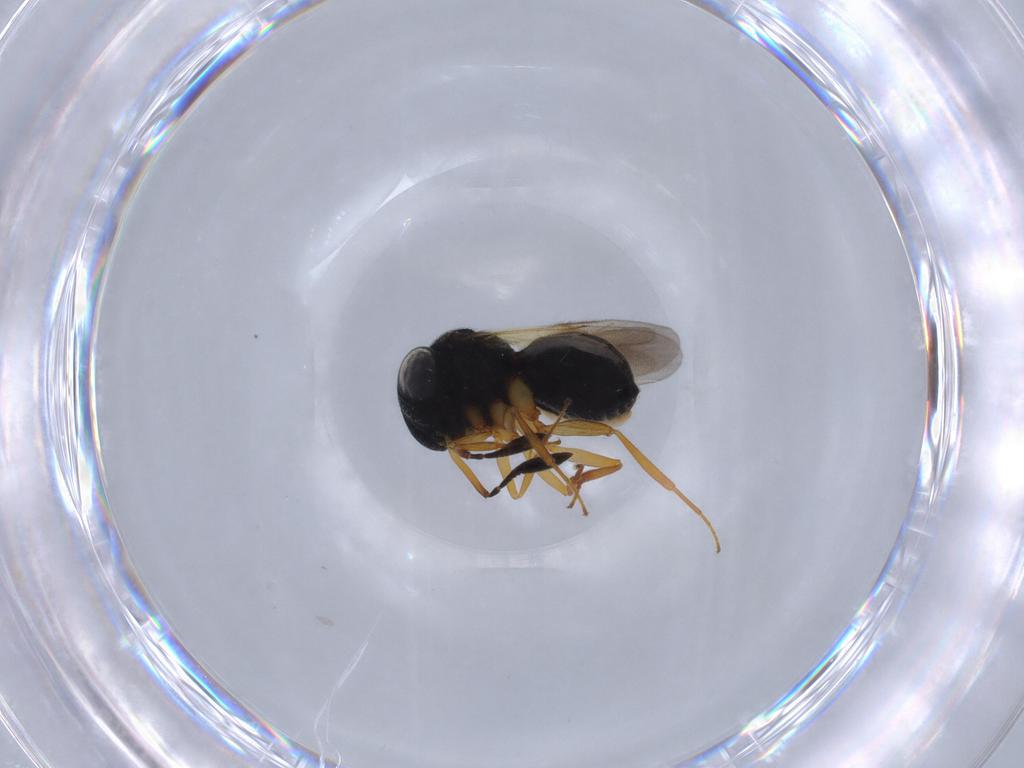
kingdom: Animalia
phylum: Arthropoda
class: Insecta
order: Hymenoptera
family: Scelionidae
